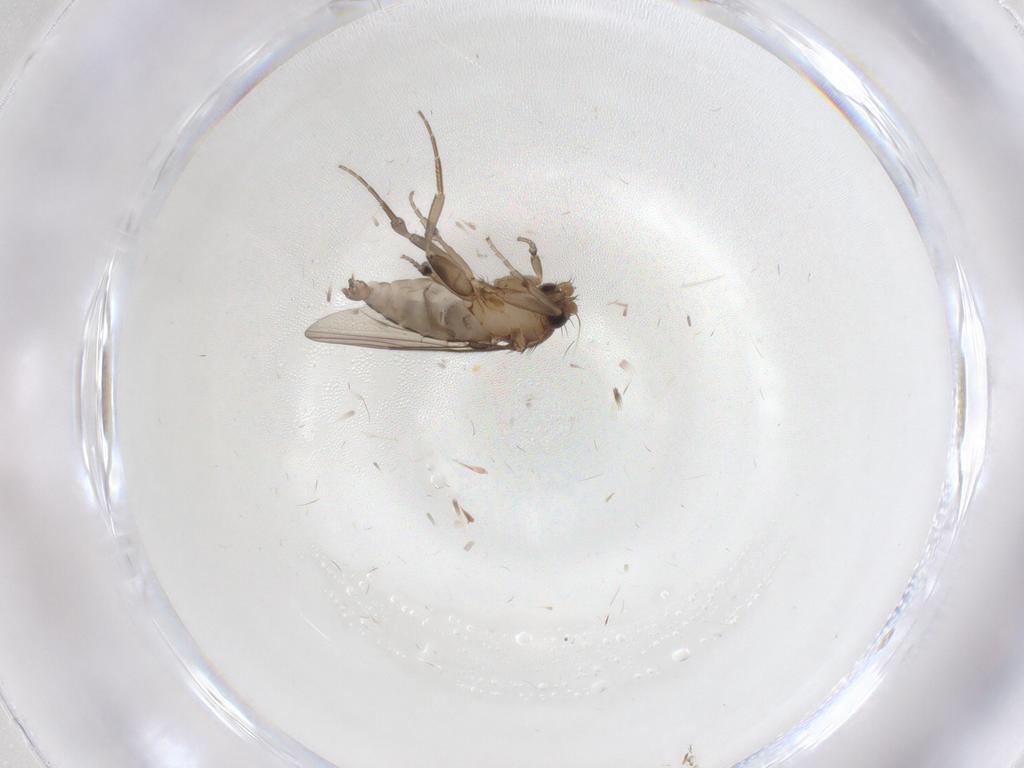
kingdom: Animalia
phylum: Arthropoda
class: Insecta
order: Diptera
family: Phoridae
